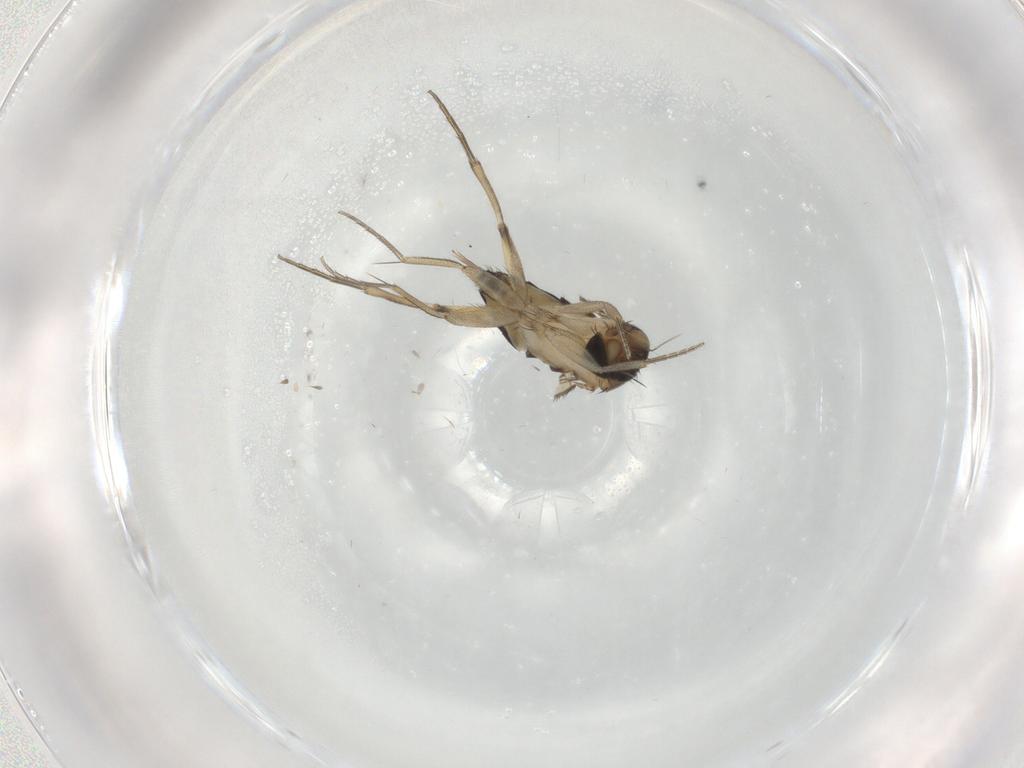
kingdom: Animalia
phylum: Arthropoda
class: Insecta
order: Diptera
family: Phoridae
